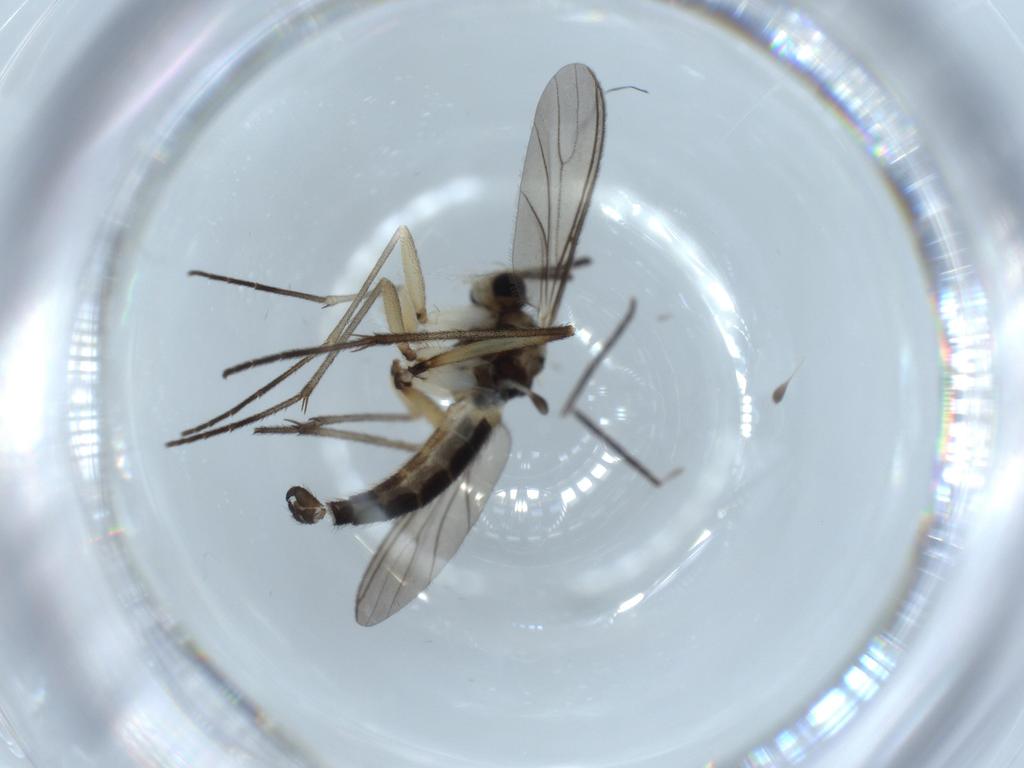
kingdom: Animalia
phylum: Arthropoda
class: Insecta
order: Diptera
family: Sciaridae
